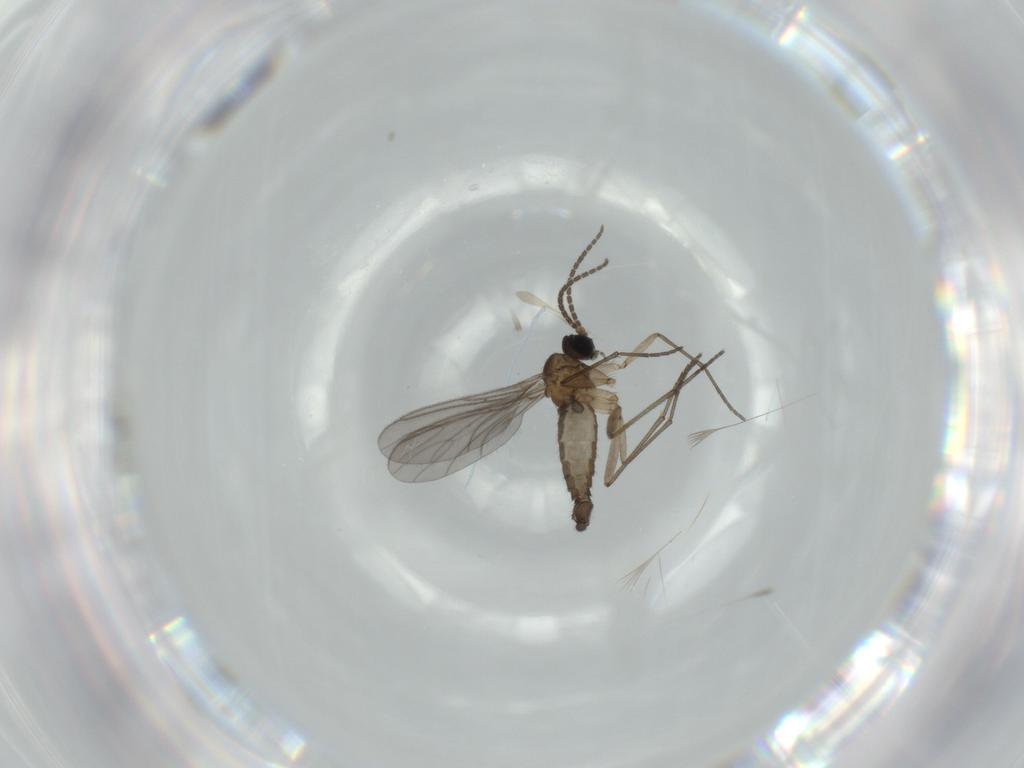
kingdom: Animalia
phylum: Arthropoda
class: Insecta
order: Diptera
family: Sciaridae
